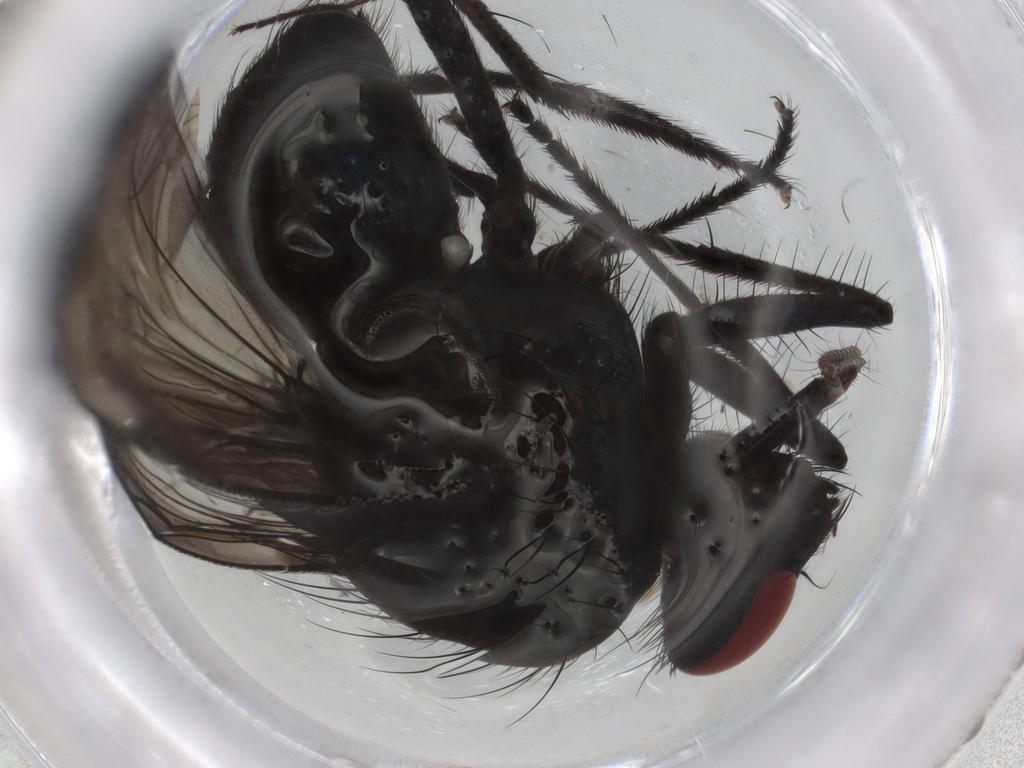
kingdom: Animalia
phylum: Arthropoda
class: Insecta
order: Diptera
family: Muscidae
